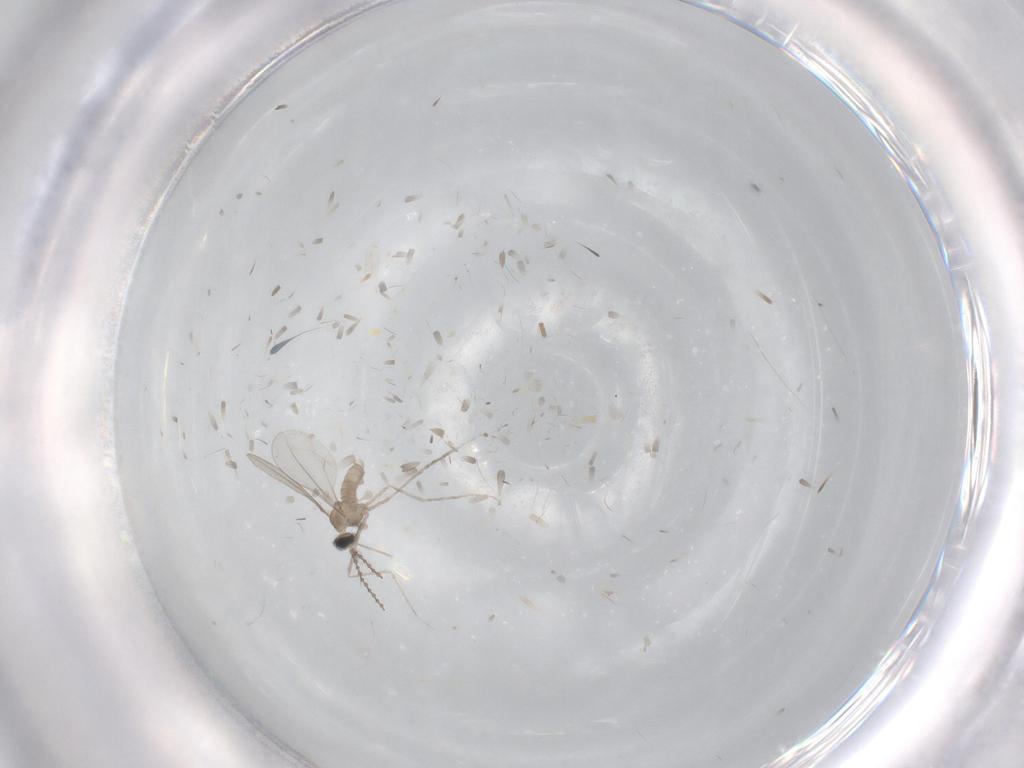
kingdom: Animalia
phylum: Arthropoda
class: Insecta
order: Diptera
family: Cecidomyiidae
